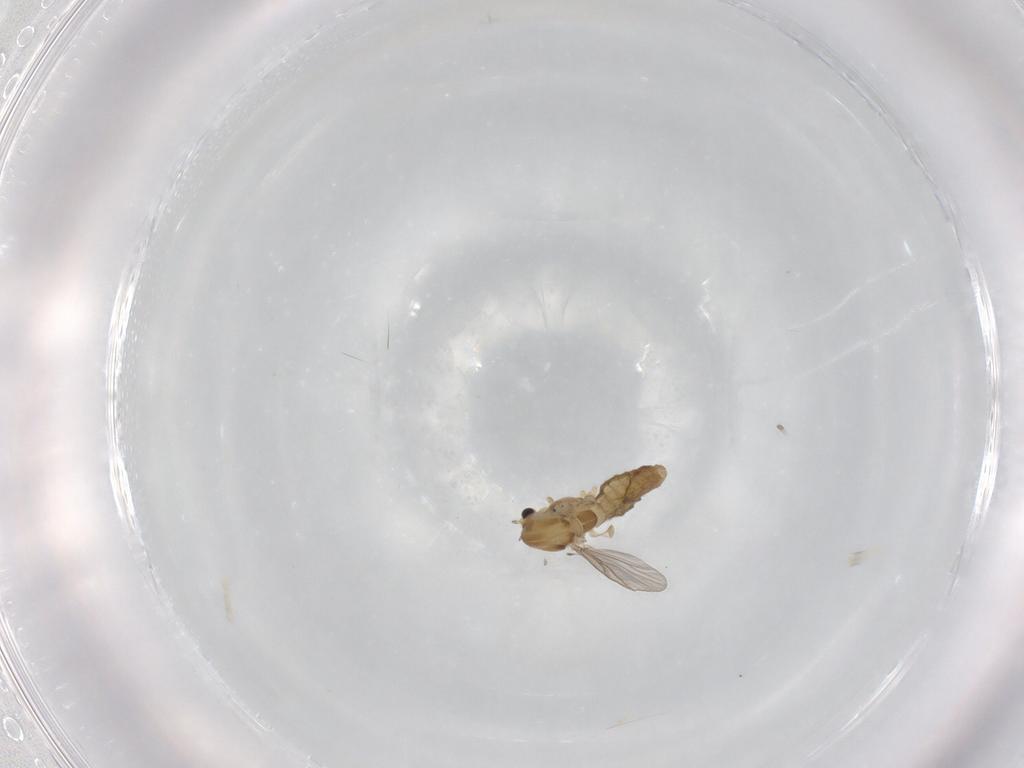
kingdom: Animalia
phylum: Arthropoda
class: Insecta
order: Diptera
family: Chironomidae
